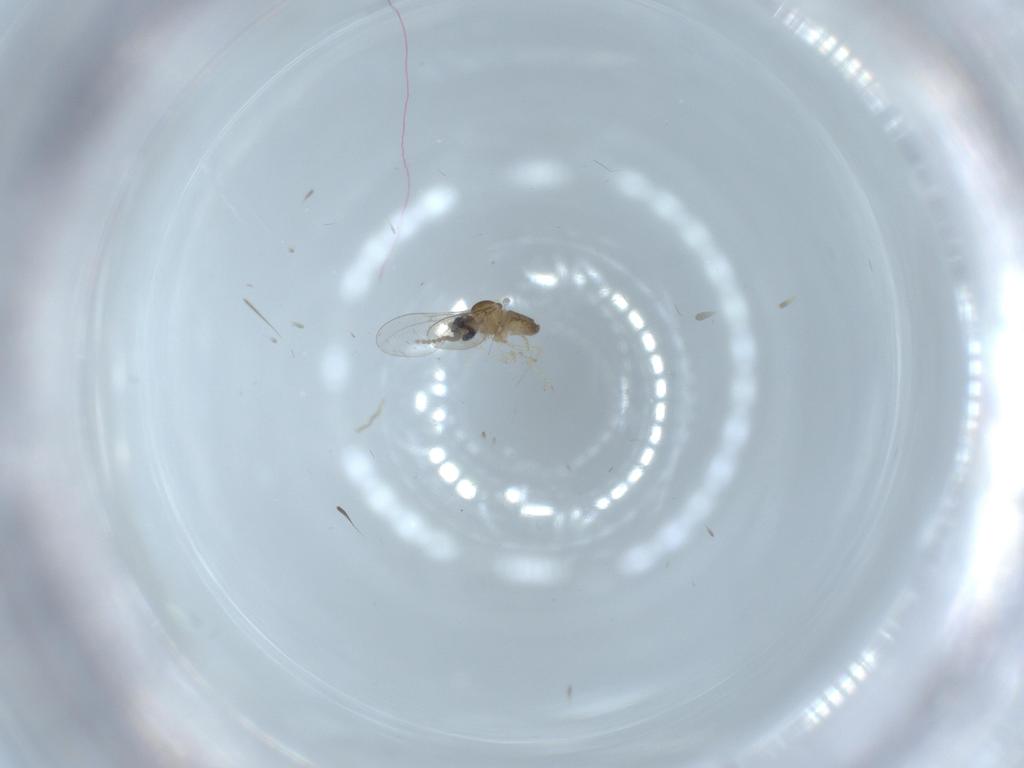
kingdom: Animalia
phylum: Arthropoda
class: Insecta
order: Diptera
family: Cecidomyiidae
